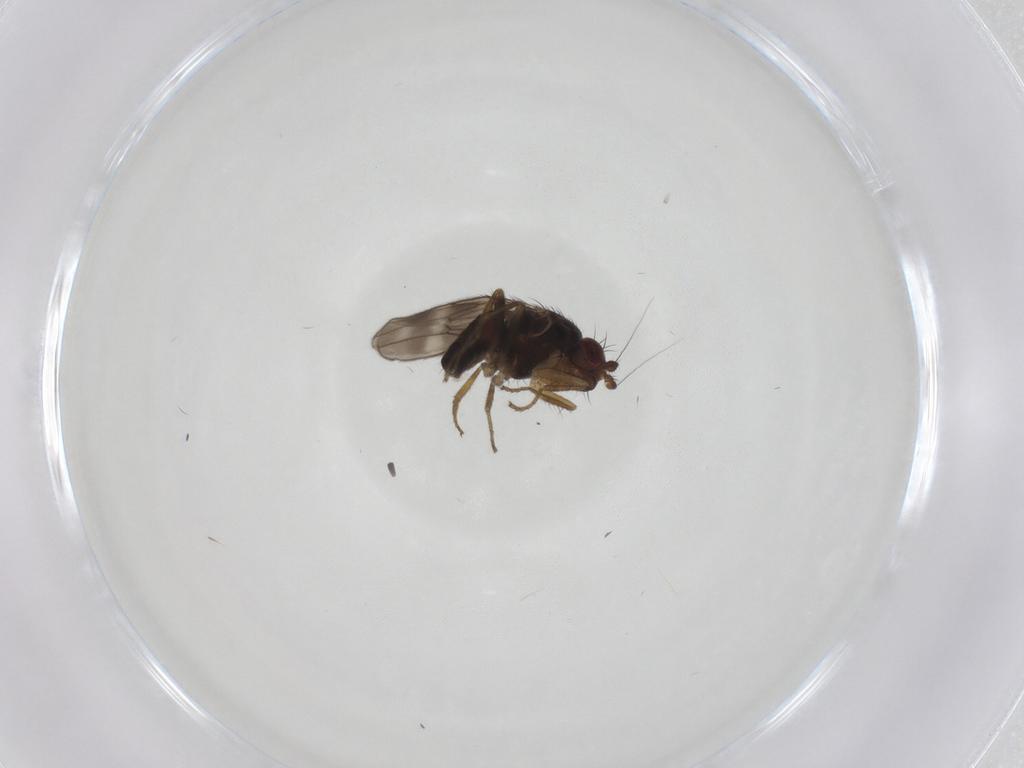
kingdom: Animalia
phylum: Arthropoda
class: Insecta
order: Diptera
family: Sphaeroceridae
